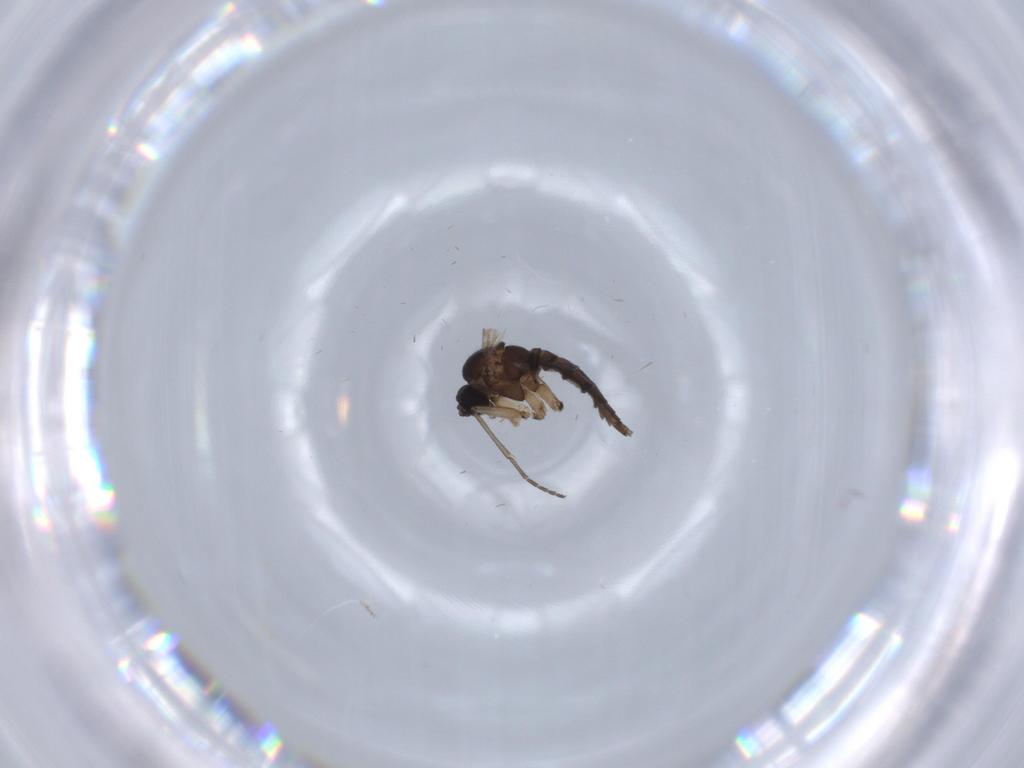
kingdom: Animalia
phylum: Arthropoda
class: Insecta
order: Diptera
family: Sciaridae
